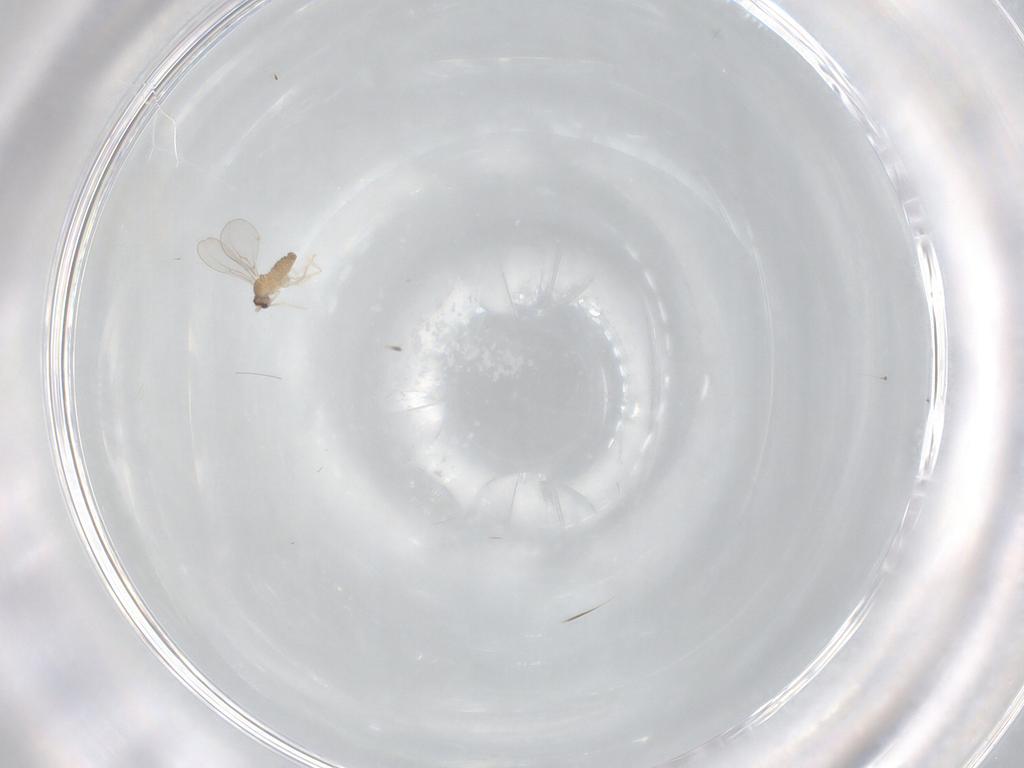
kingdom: Animalia
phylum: Arthropoda
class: Insecta
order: Diptera
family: Cecidomyiidae
